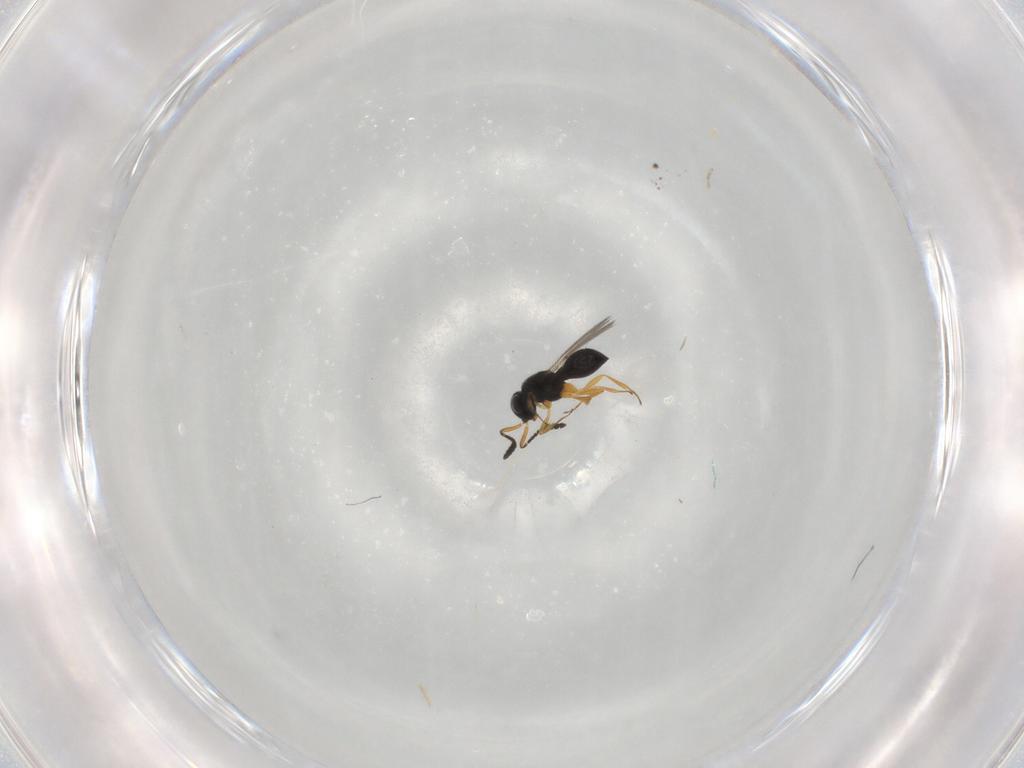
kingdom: Animalia
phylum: Arthropoda
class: Insecta
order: Hymenoptera
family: Scelionidae
